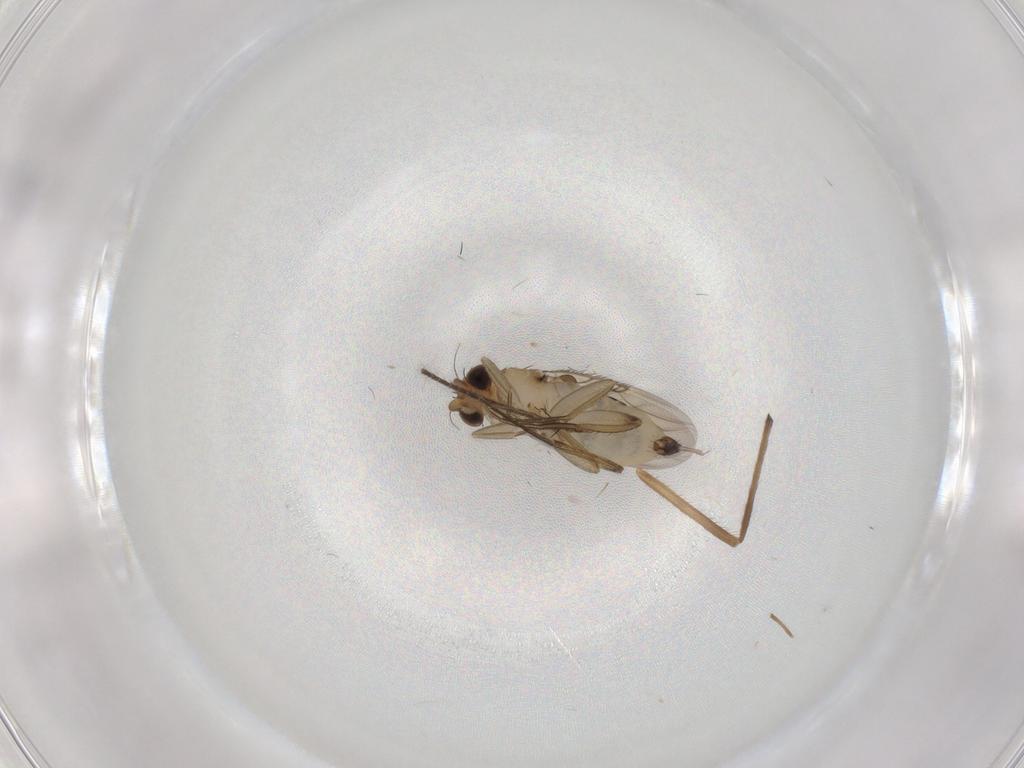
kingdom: Animalia
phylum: Arthropoda
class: Insecta
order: Diptera
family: Phoridae
